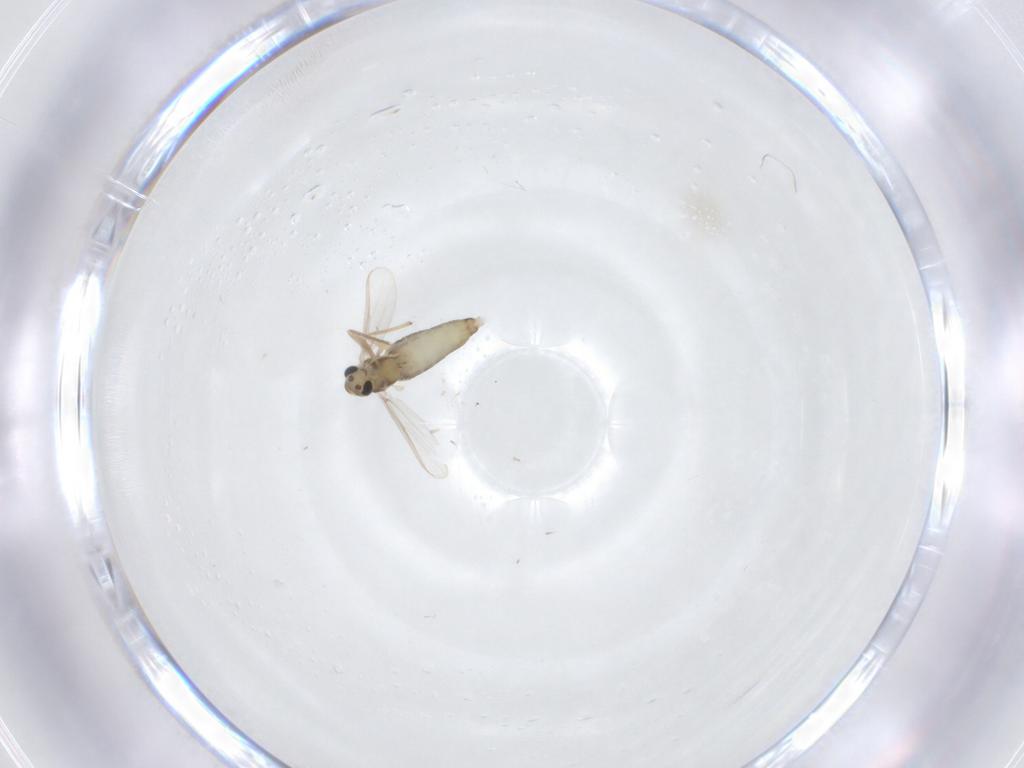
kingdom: Animalia
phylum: Arthropoda
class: Insecta
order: Diptera
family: Chironomidae
